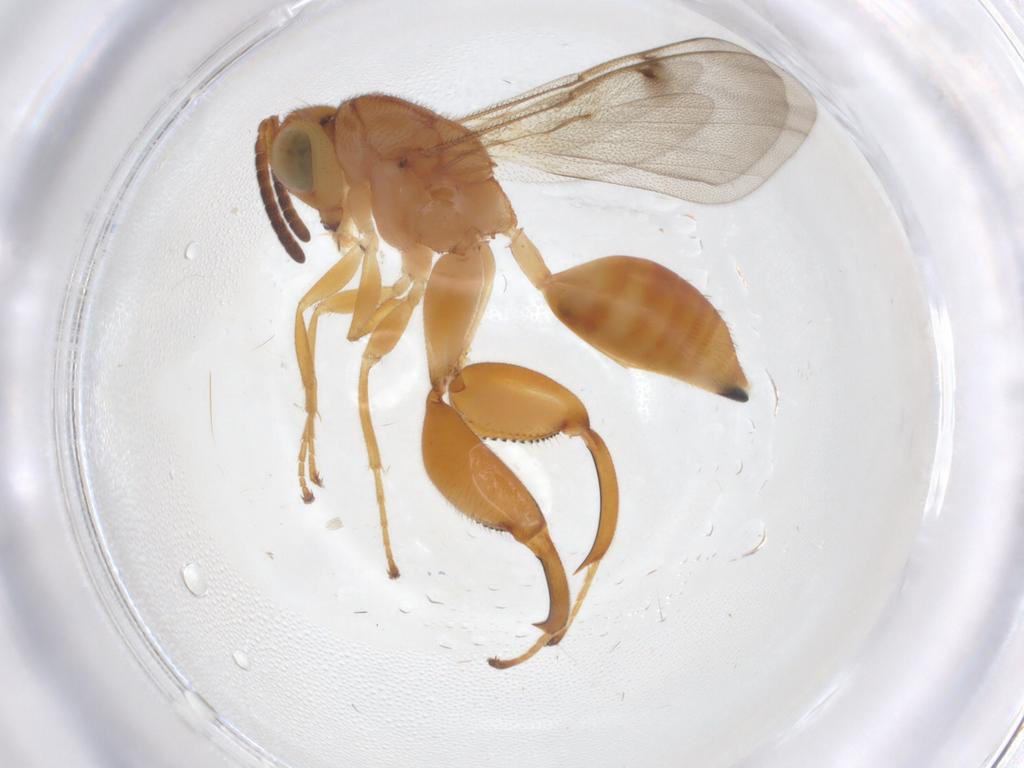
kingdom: Animalia
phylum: Arthropoda
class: Insecta
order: Hymenoptera
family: Chalcididae
